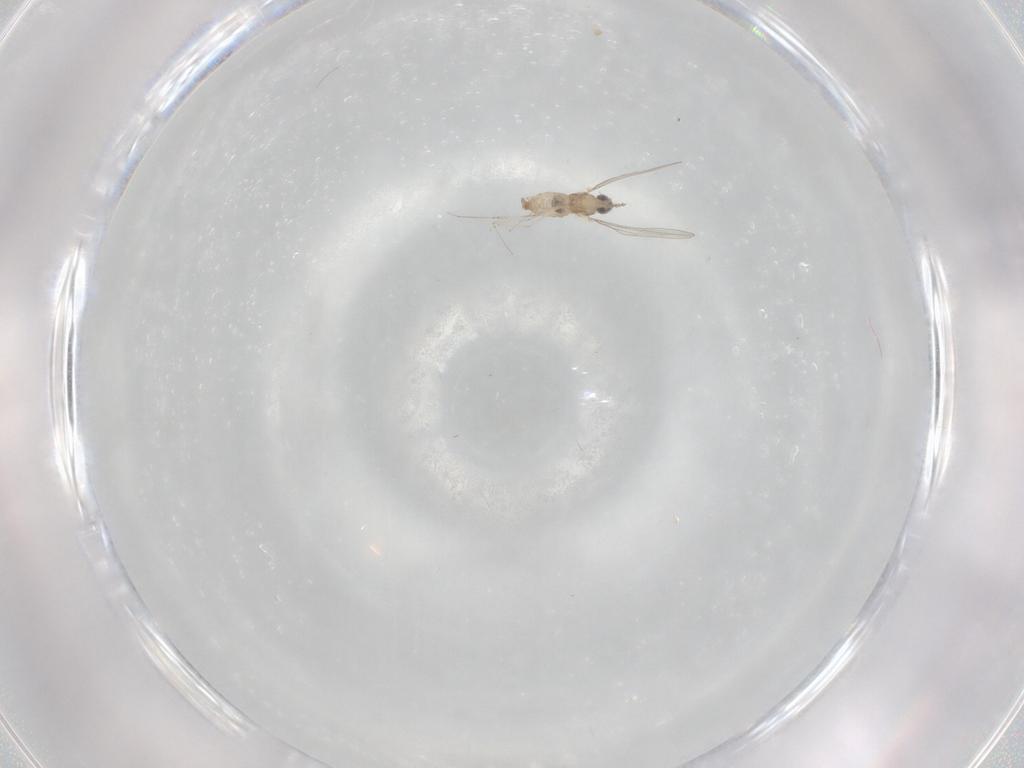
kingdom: Animalia
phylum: Arthropoda
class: Insecta
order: Diptera
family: Cecidomyiidae
